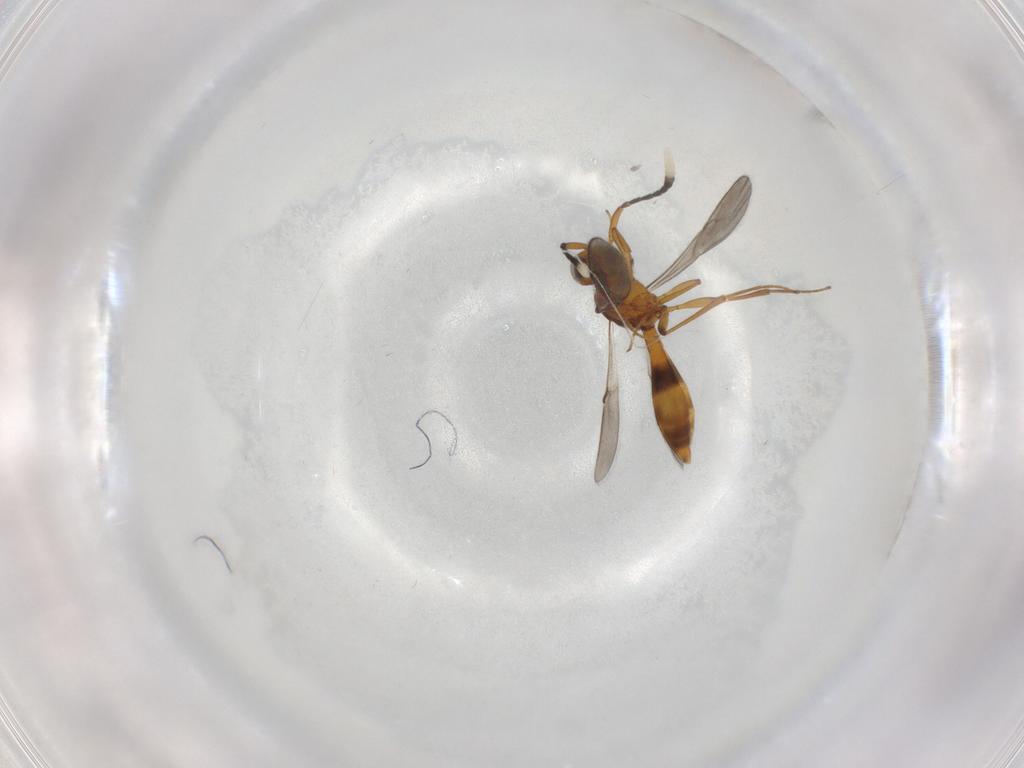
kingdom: Animalia
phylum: Arthropoda
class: Insecta
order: Hymenoptera
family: Scelionidae
